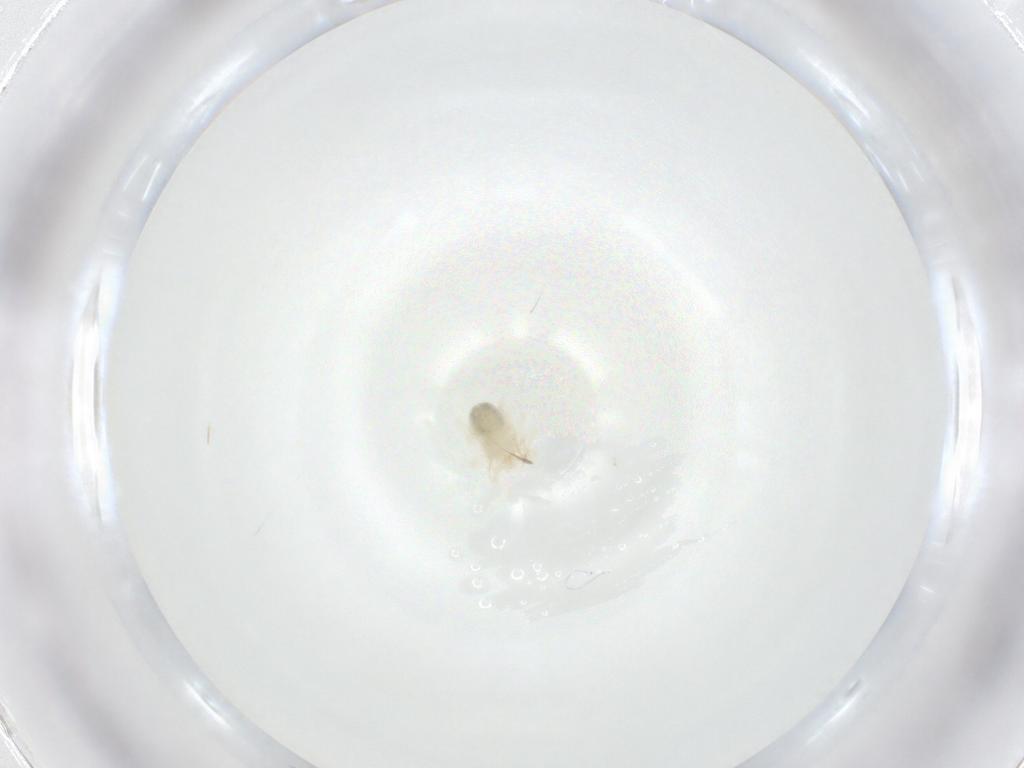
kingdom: Animalia
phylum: Arthropoda
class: Arachnida
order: Trombidiformes
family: Anystidae
